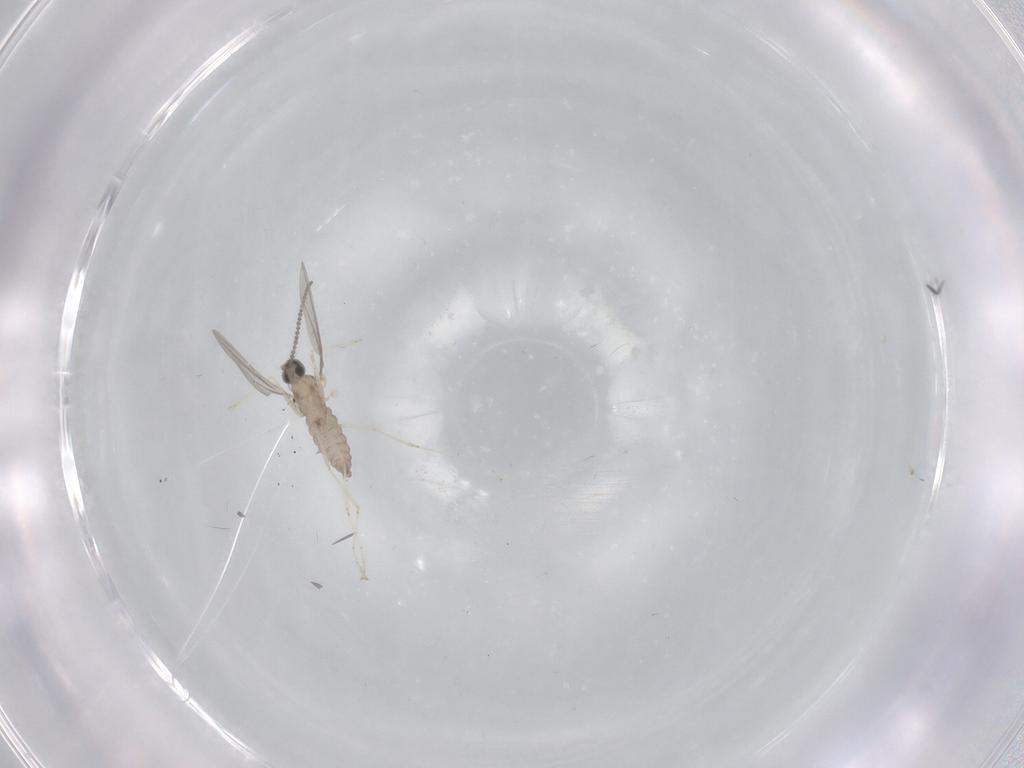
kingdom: Animalia
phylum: Arthropoda
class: Insecta
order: Diptera
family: Cecidomyiidae
